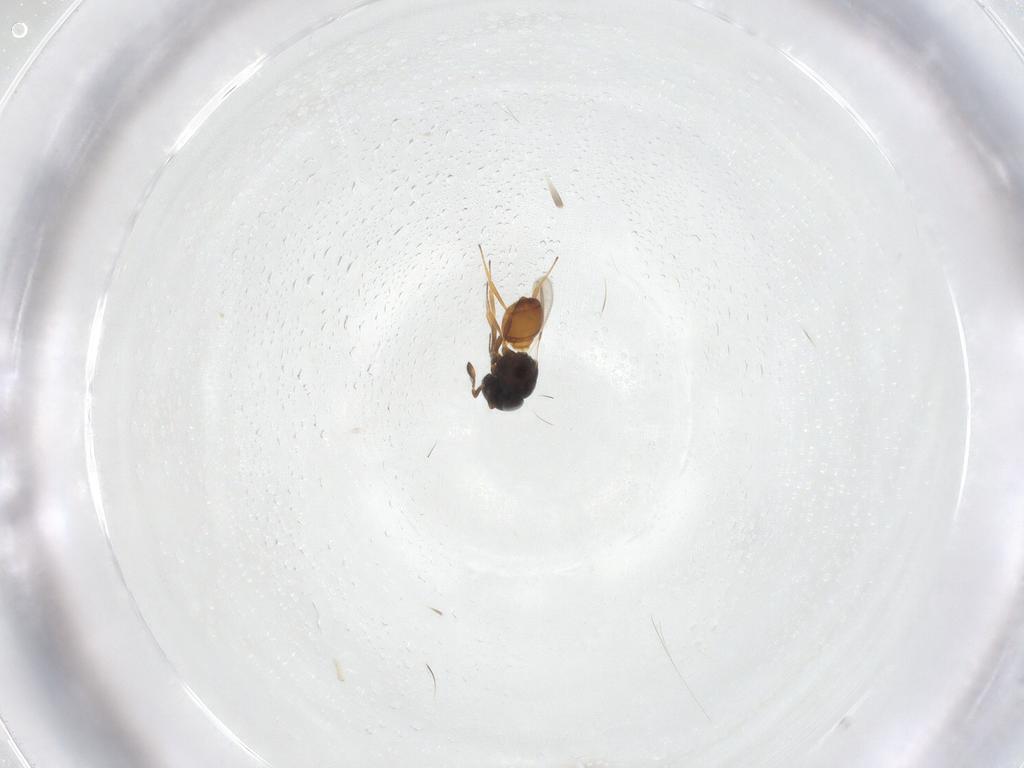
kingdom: Animalia
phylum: Arthropoda
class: Insecta
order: Hymenoptera
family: Scelionidae
